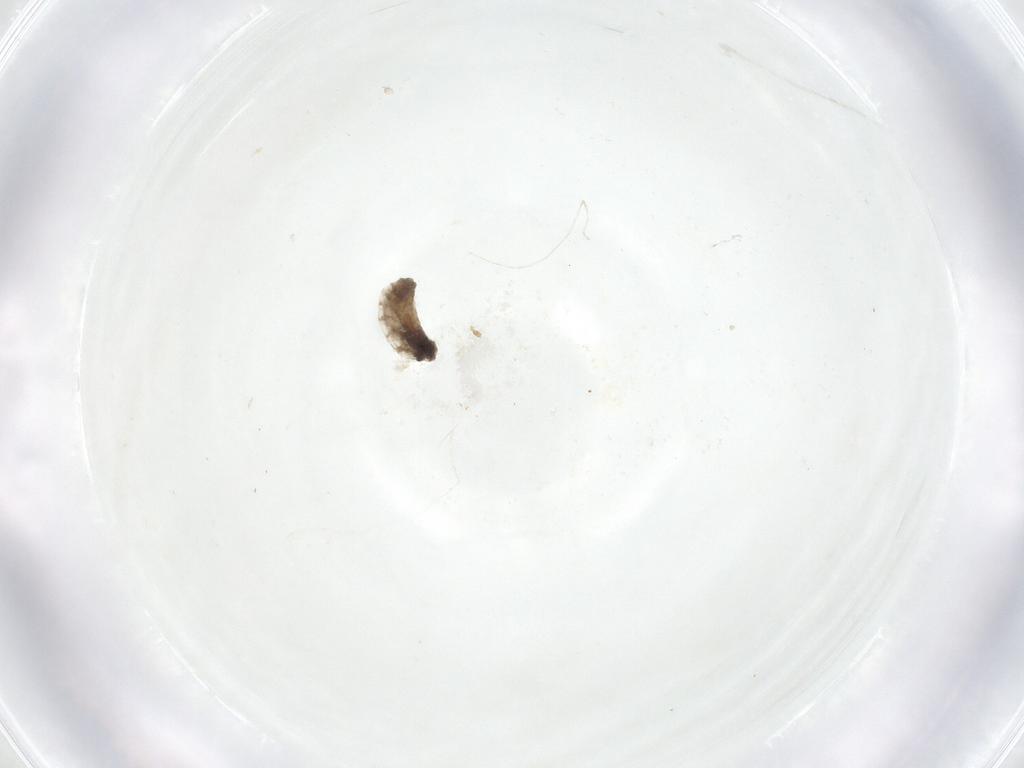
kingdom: Animalia
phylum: Arthropoda
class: Insecta
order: Diptera
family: Fergusoninidae
